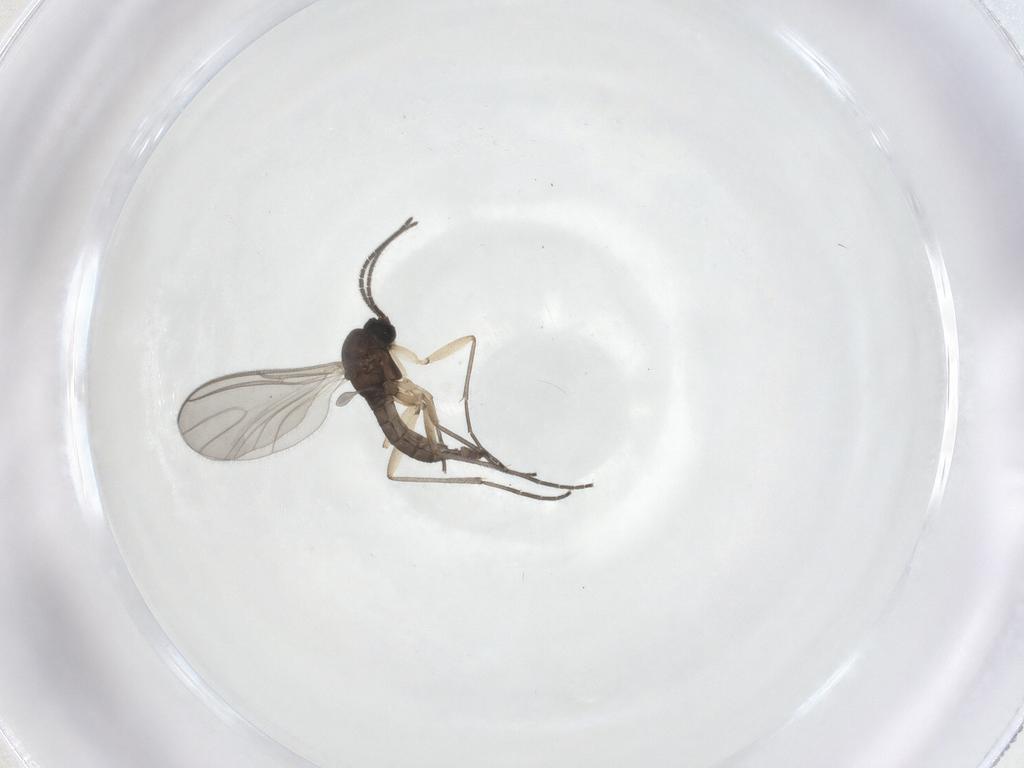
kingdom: Animalia
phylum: Arthropoda
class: Insecta
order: Diptera
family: Sciaridae
